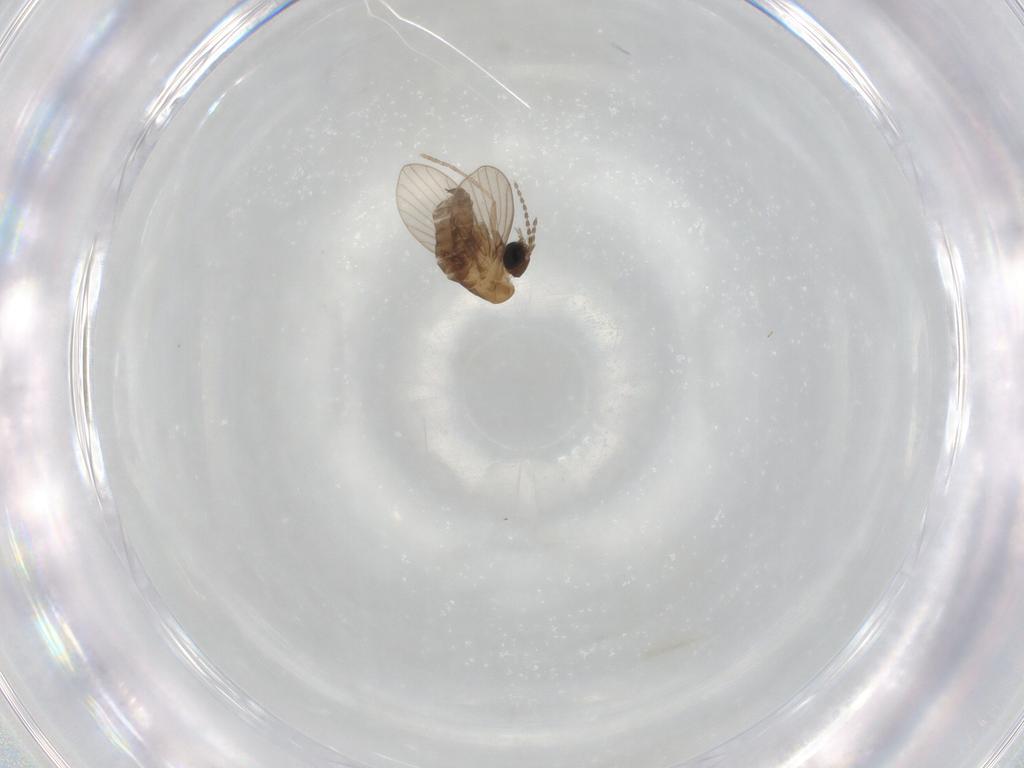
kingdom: Animalia
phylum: Arthropoda
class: Insecta
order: Diptera
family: Psychodidae
